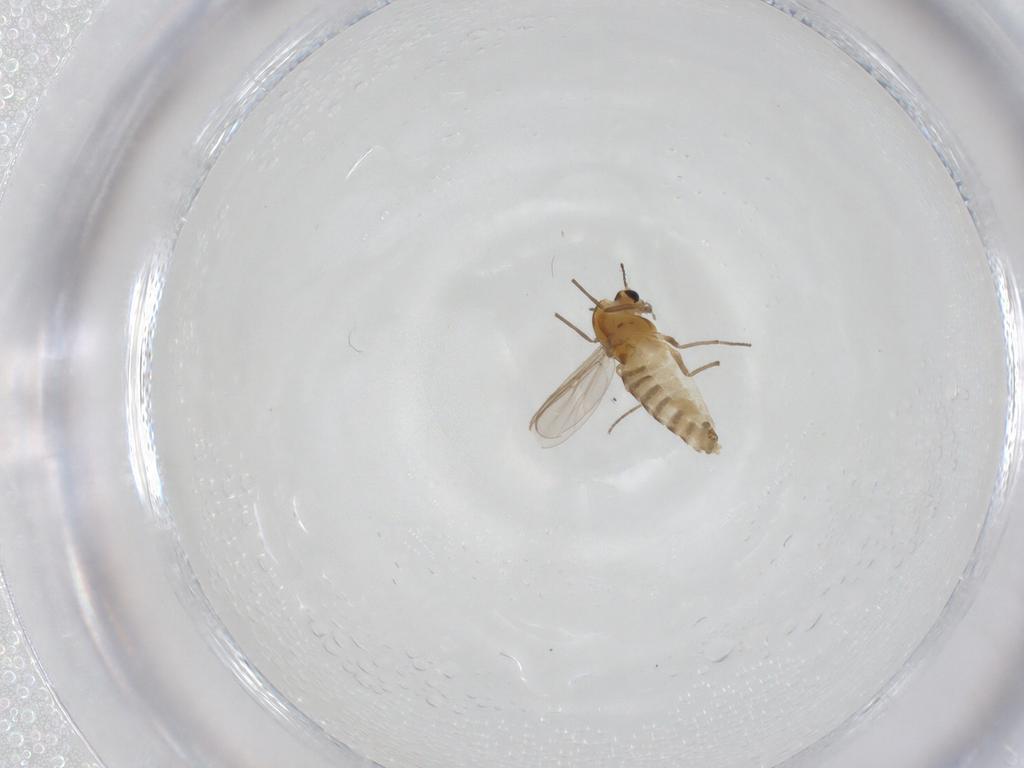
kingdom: Animalia
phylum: Arthropoda
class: Insecta
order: Diptera
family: Chironomidae
